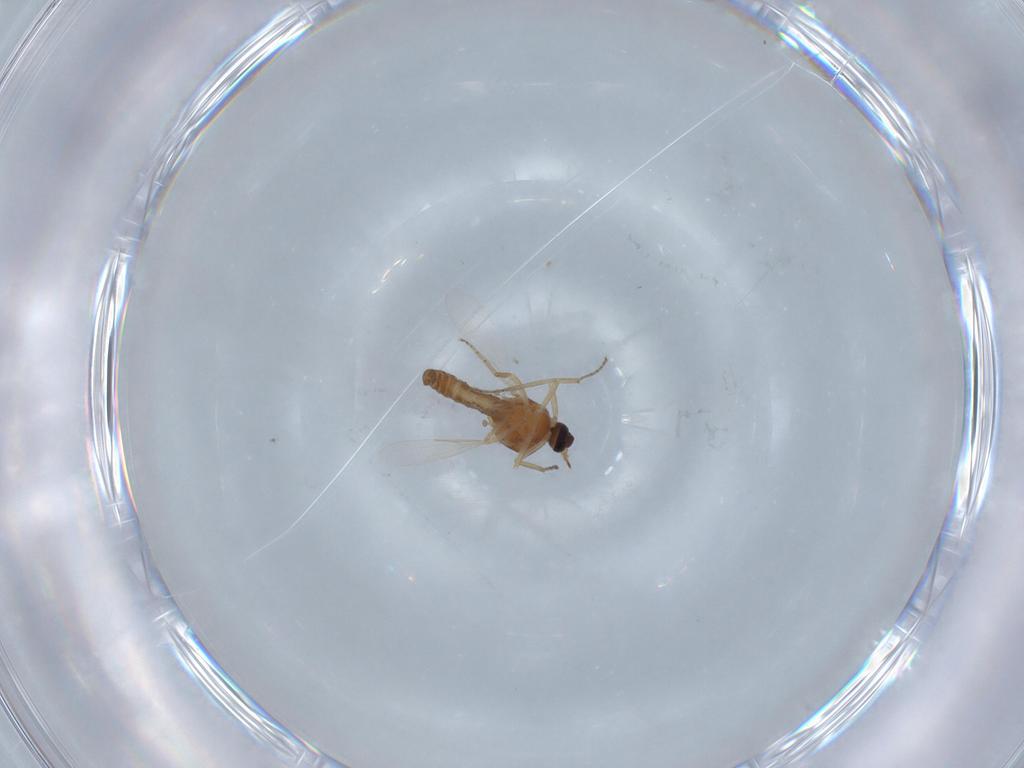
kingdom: Animalia
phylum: Arthropoda
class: Insecta
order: Diptera
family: Ceratopogonidae
